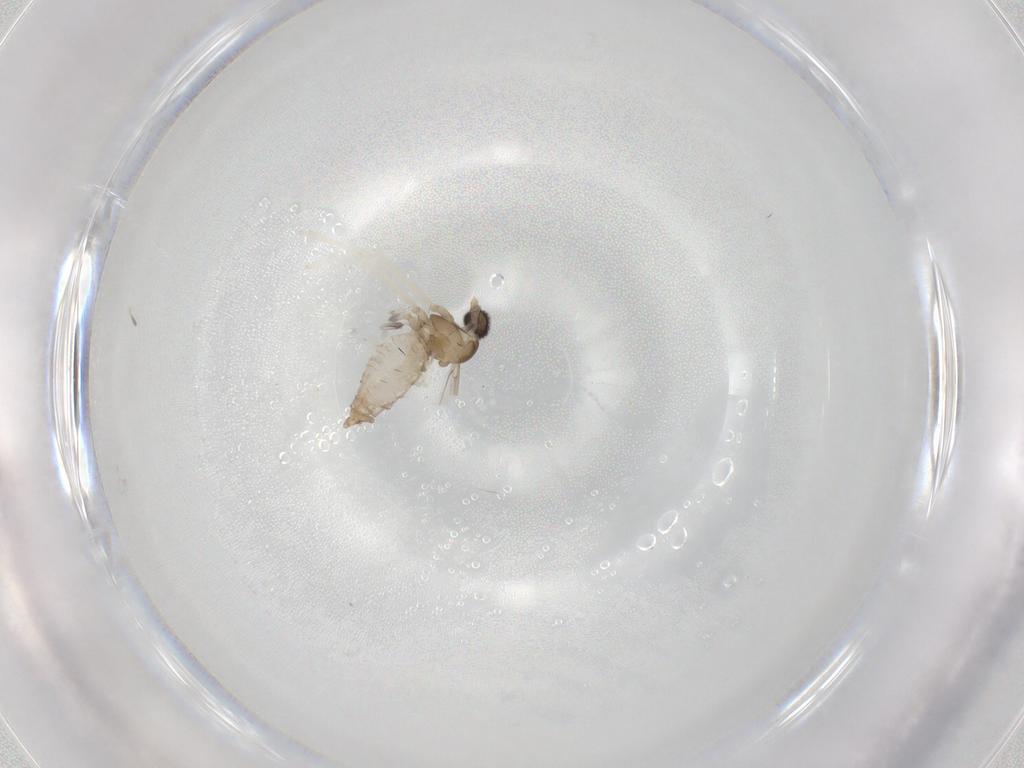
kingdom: Animalia
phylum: Arthropoda
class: Insecta
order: Diptera
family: Cecidomyiidae
